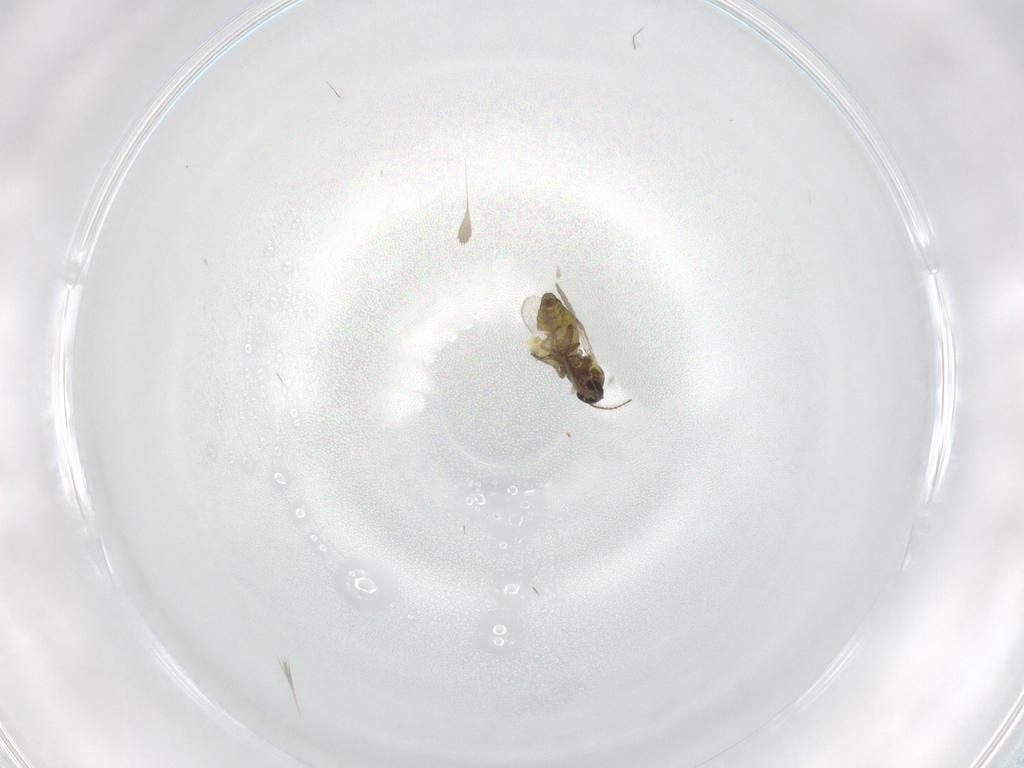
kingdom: Animalia
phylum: Arthropoda
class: Insecta
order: Diptera
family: Ceratopogonidae
